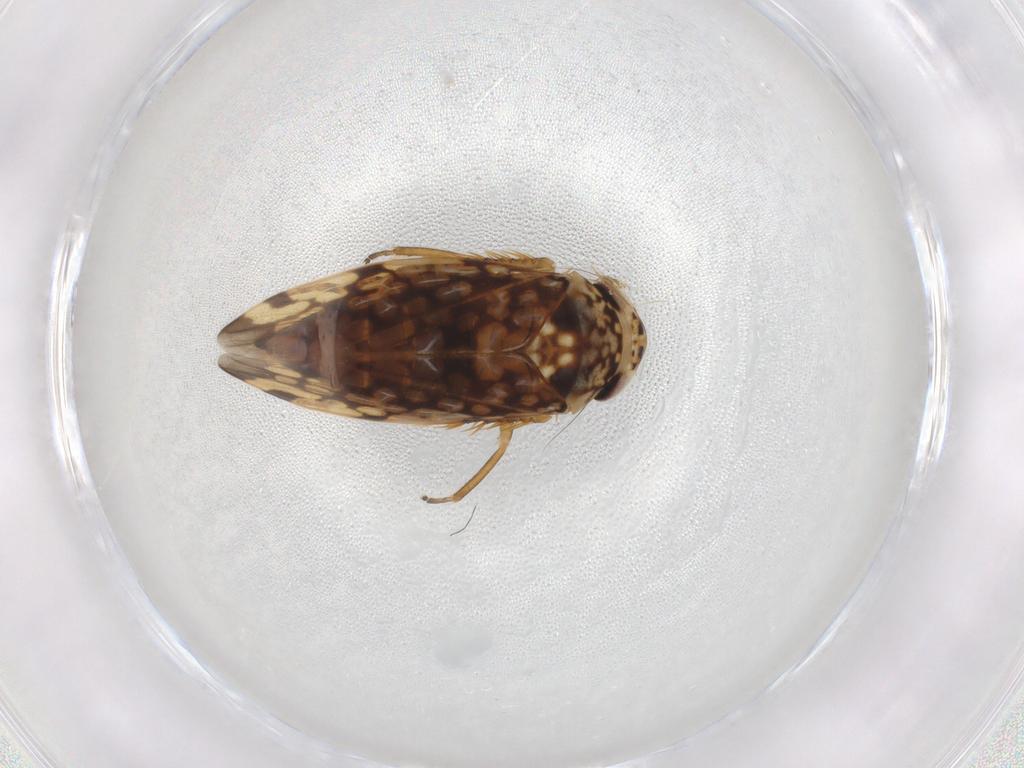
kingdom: Animalia
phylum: Arthropoda
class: Insecta
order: Hemiptera
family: Cicadellidae
